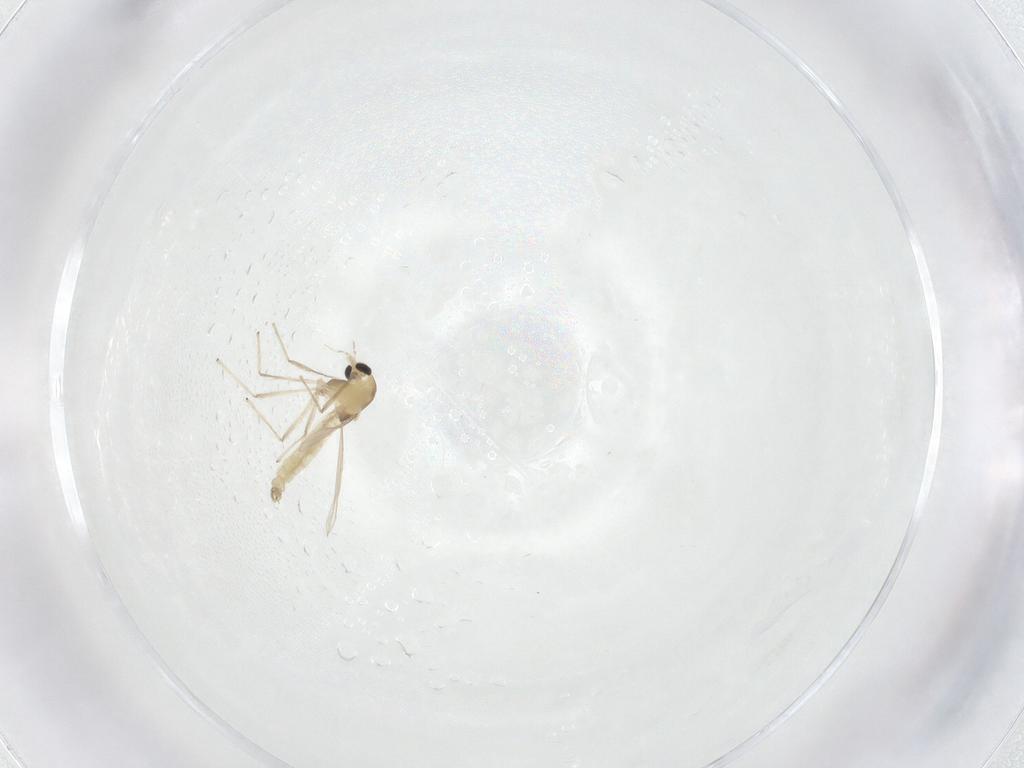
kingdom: Animalia
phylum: Arthropoda
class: Insecta
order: Diptera
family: Chironomidae
